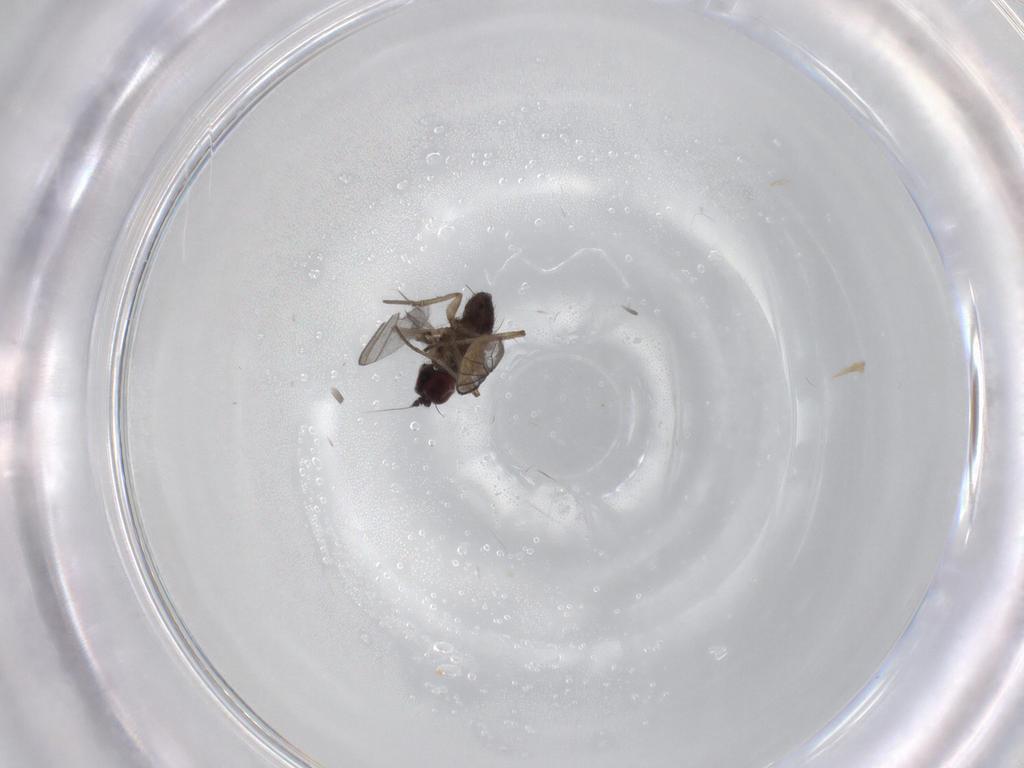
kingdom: Animalia
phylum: Arthropoda
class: Insecta
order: Diptera
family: Dolichopodidae
